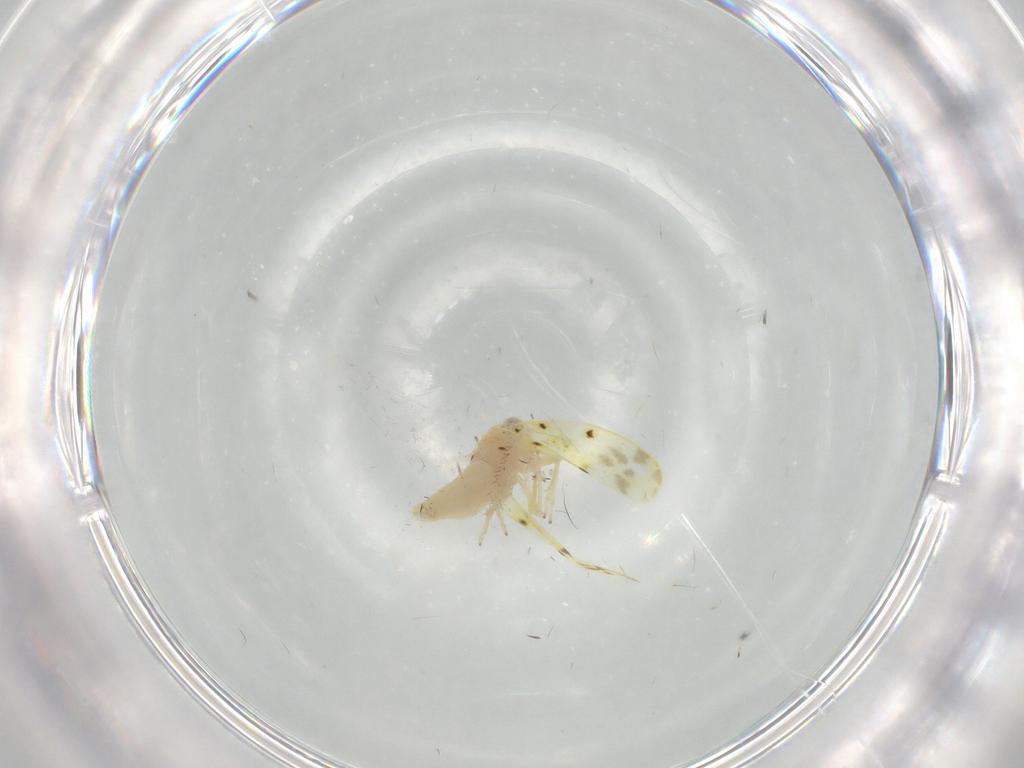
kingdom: Animalia
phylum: Arthropoda
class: Insecta
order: Hemiptera
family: Cicadellidae
